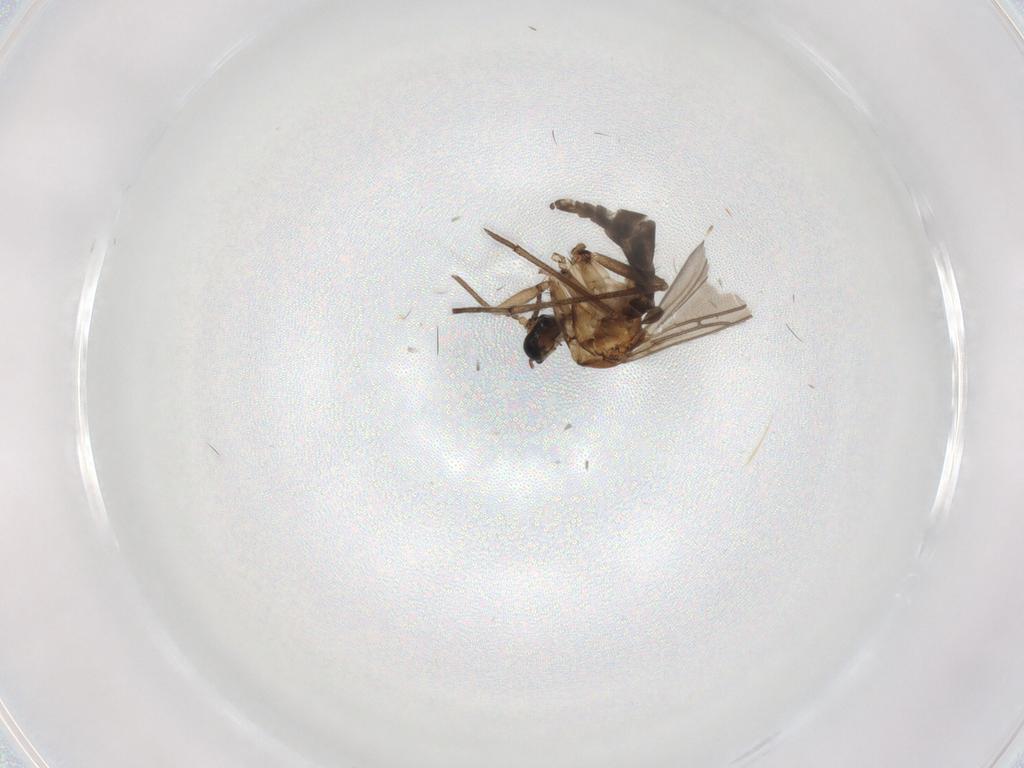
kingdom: Animalia
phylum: Arthropoda
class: Insecta
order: Diptera
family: Sciaridae
